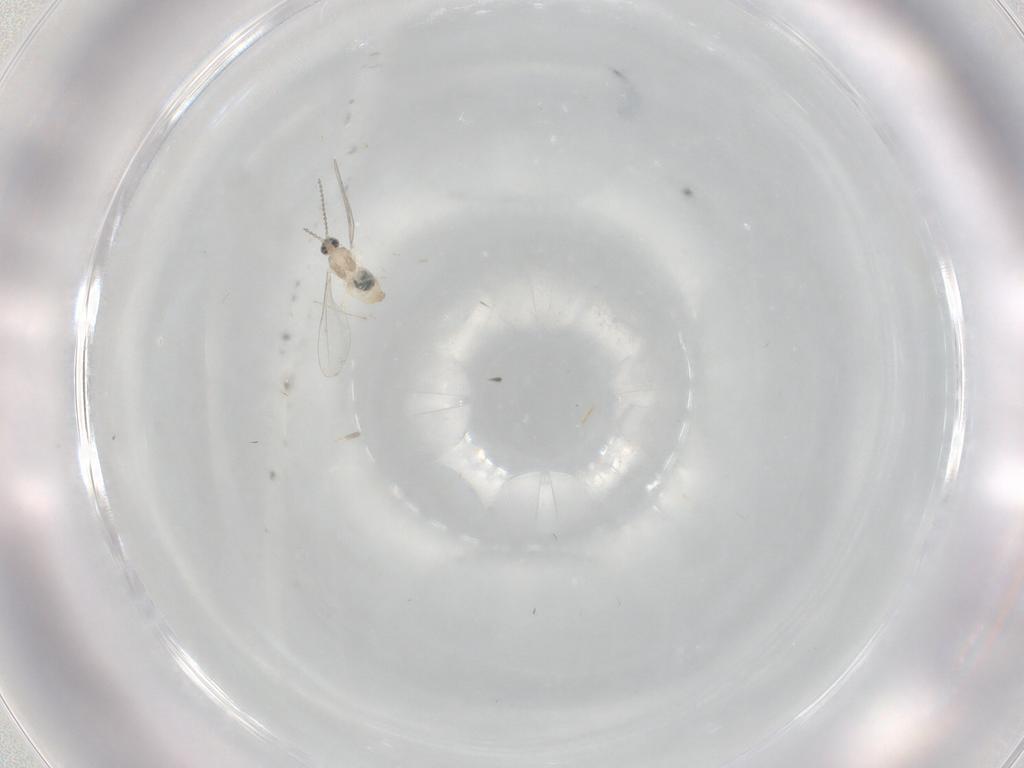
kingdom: Animalia
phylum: Arthropoda
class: Insecta
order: Diptera
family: Cecidomyiidae
